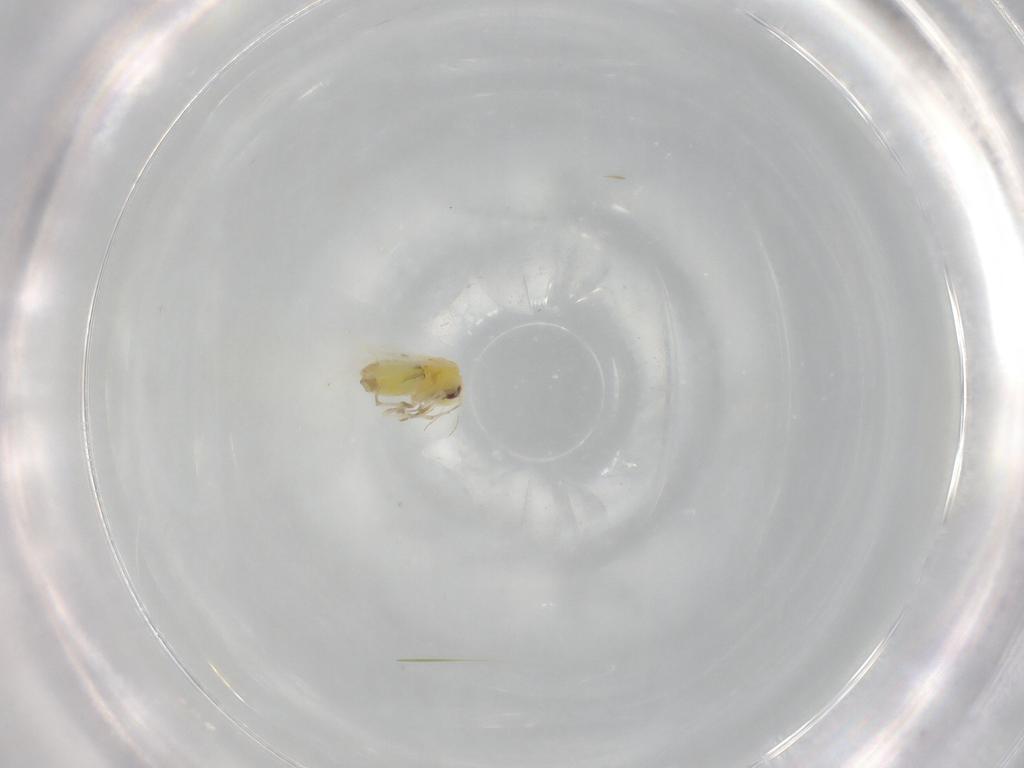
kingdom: Animalia
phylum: Arthropoda
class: Insecta
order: Hemiptera
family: Aleyrodidae
